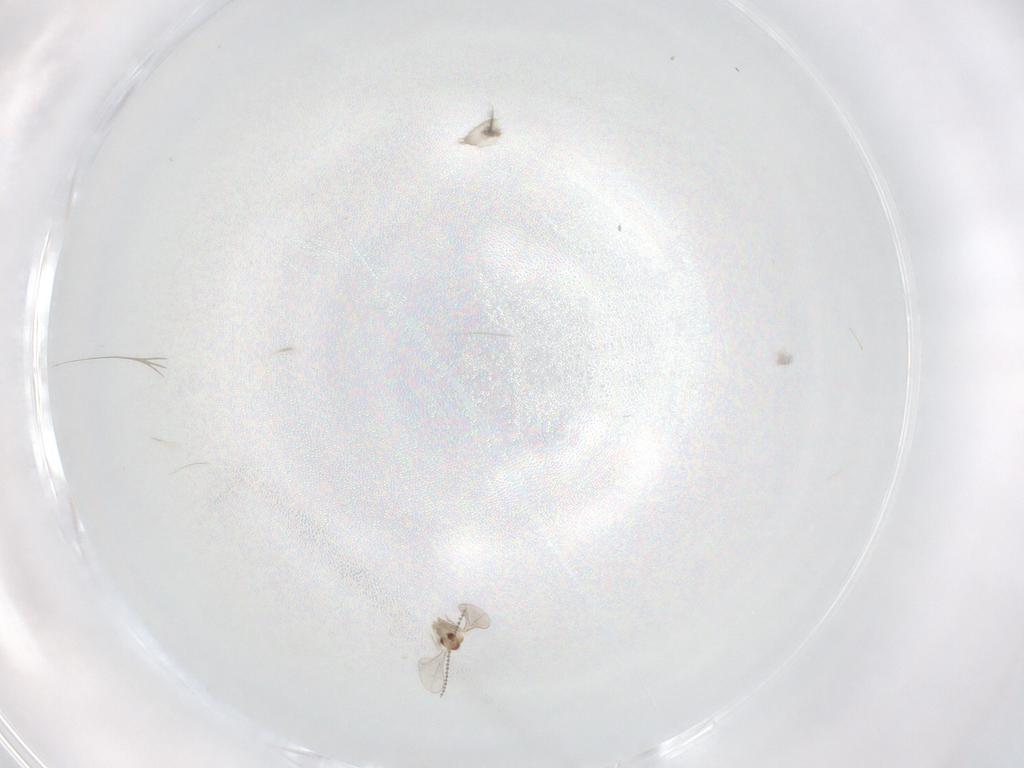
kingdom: Animalia
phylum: Arthropoda
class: Insecta
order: Diptera
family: Cecidomyiidae
